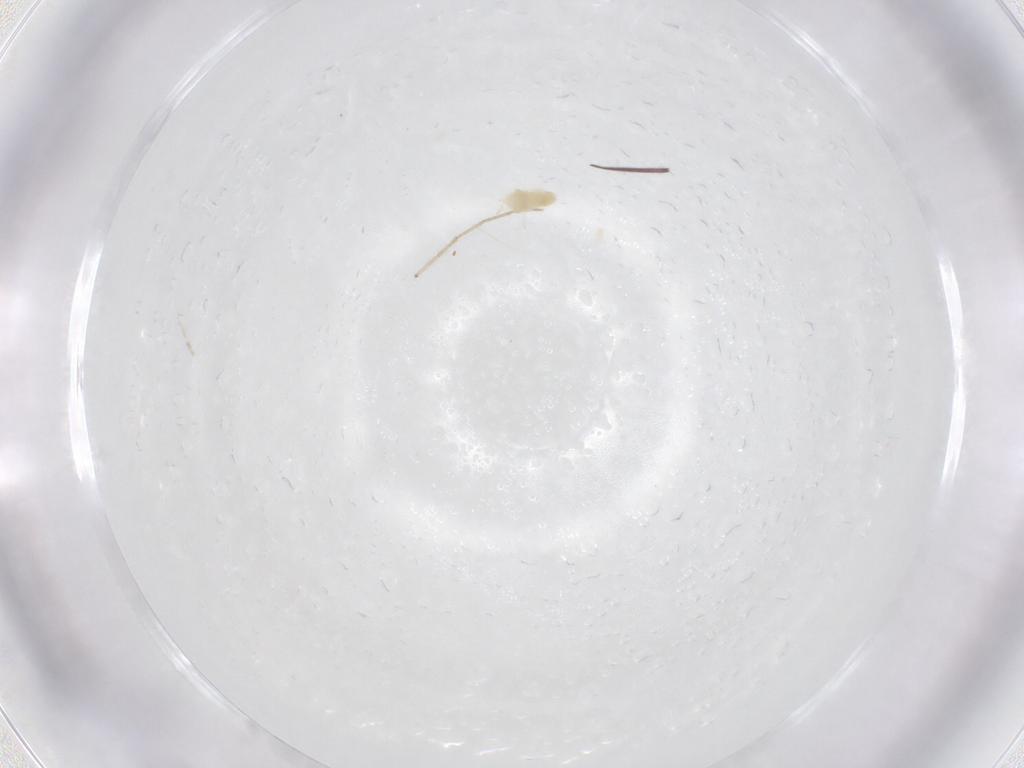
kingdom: Animalia
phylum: Arthropoda
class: Collembola
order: Entomobryomorpha
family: Entomobryidae
